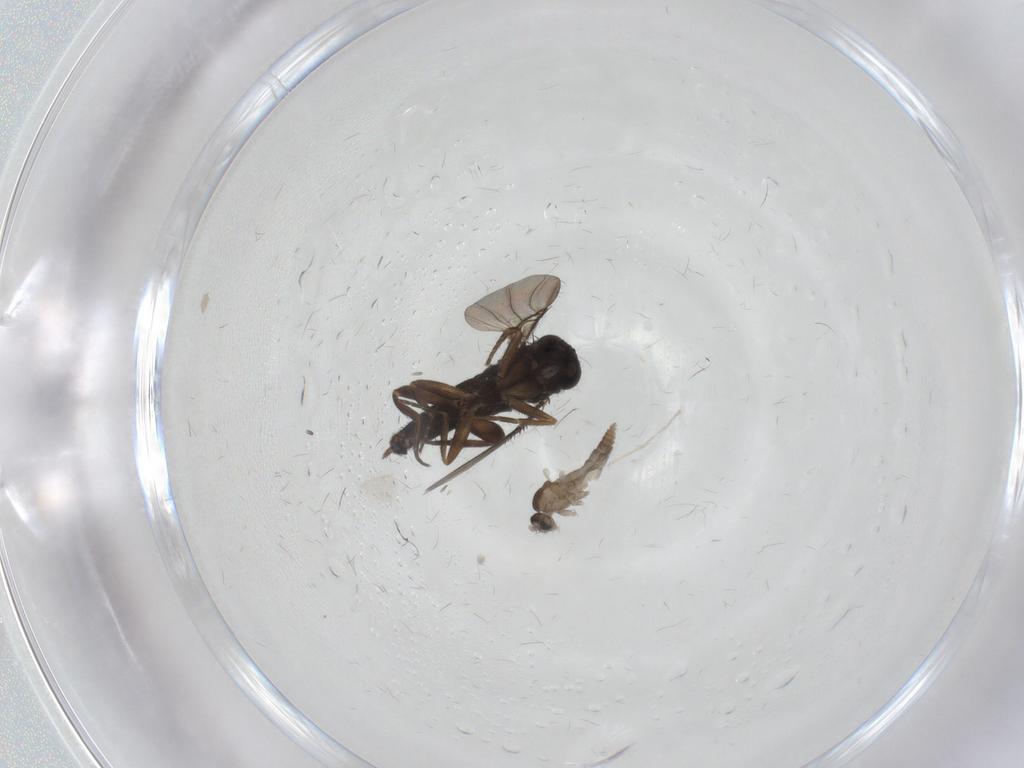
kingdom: Animalia
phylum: Arthropoda
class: Insecta
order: Diptera
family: Phoridae
